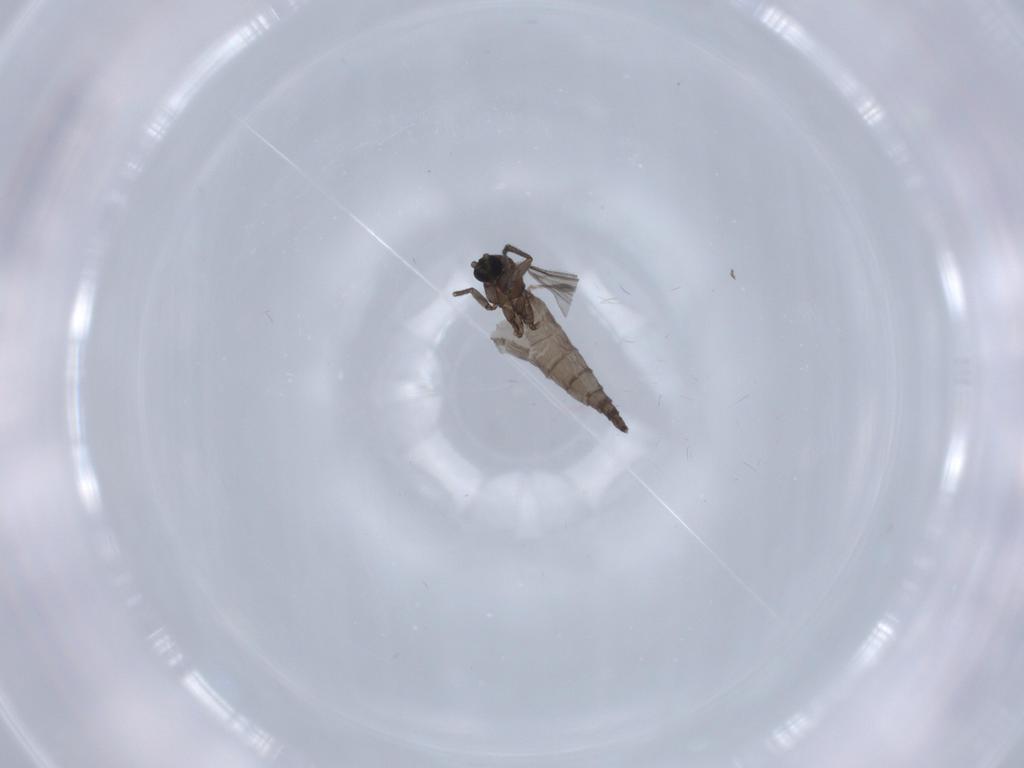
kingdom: Animalia
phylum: Arthropoda
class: Insecta
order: Diptera
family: Sciaridae
